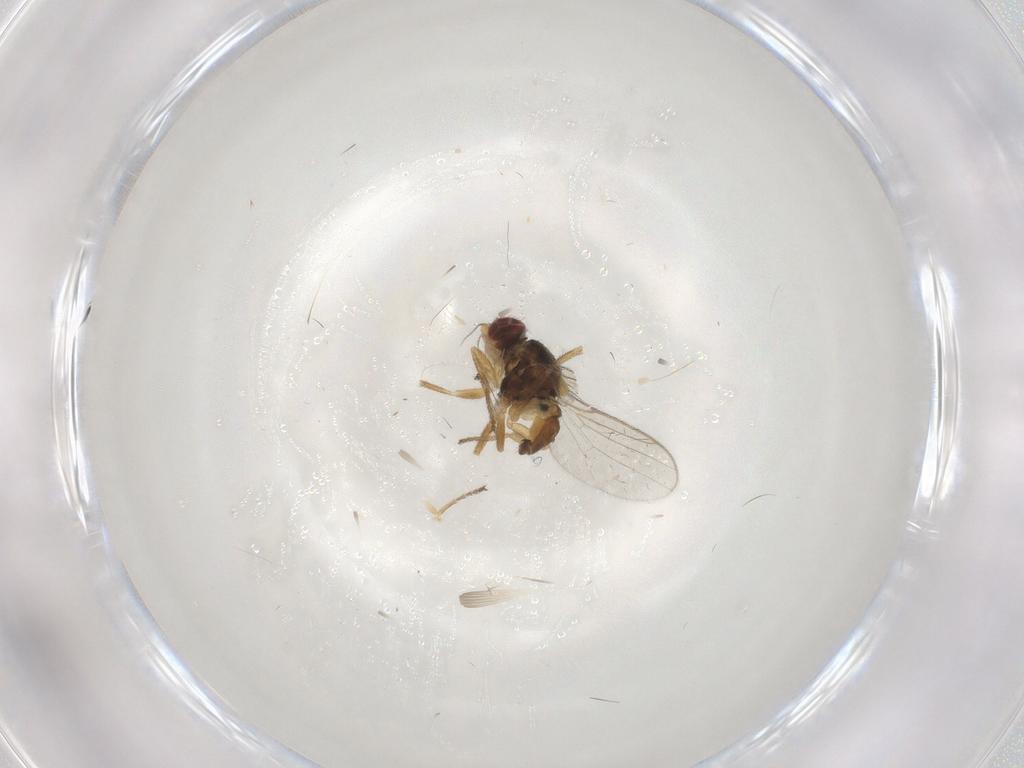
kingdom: Animalia
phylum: Arthropoda
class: Insecta
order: Diptera
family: Chloropidae
